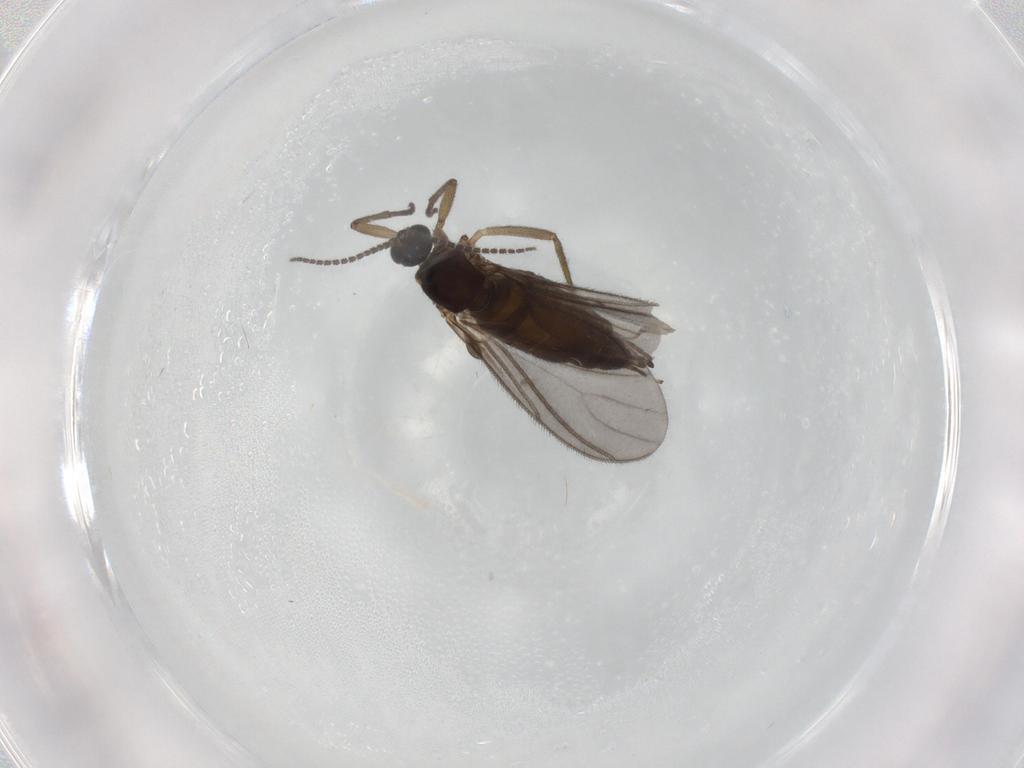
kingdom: Animalia
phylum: Arthropoda
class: Insecta
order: Diptera
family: Sciaridae
